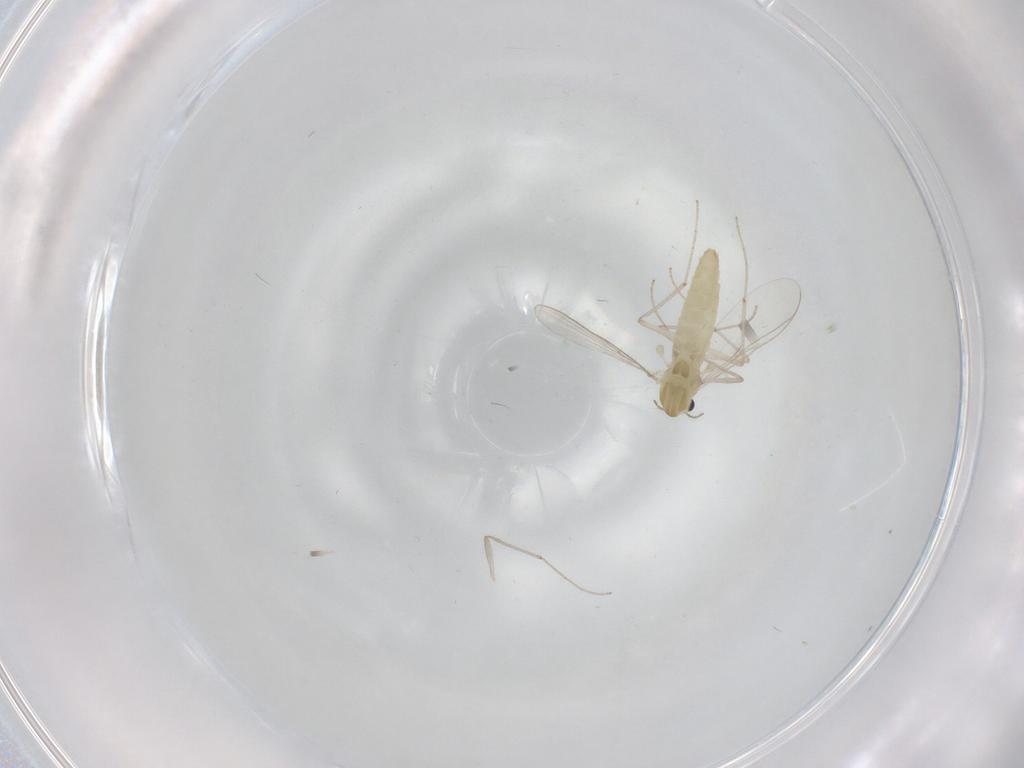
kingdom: Animalia
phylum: Arthropoda
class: Insecta
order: Diptera
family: Chironomidae
